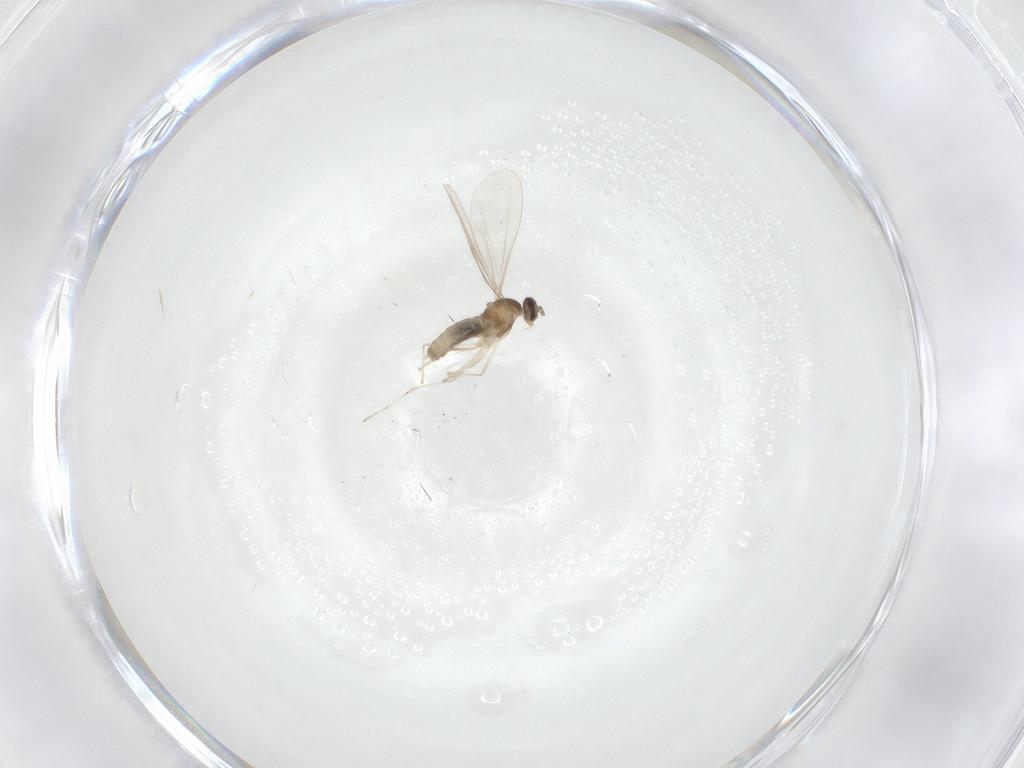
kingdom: Animalia
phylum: Arthropoda
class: Insecta
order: Diptera
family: Cecidomyiidae
